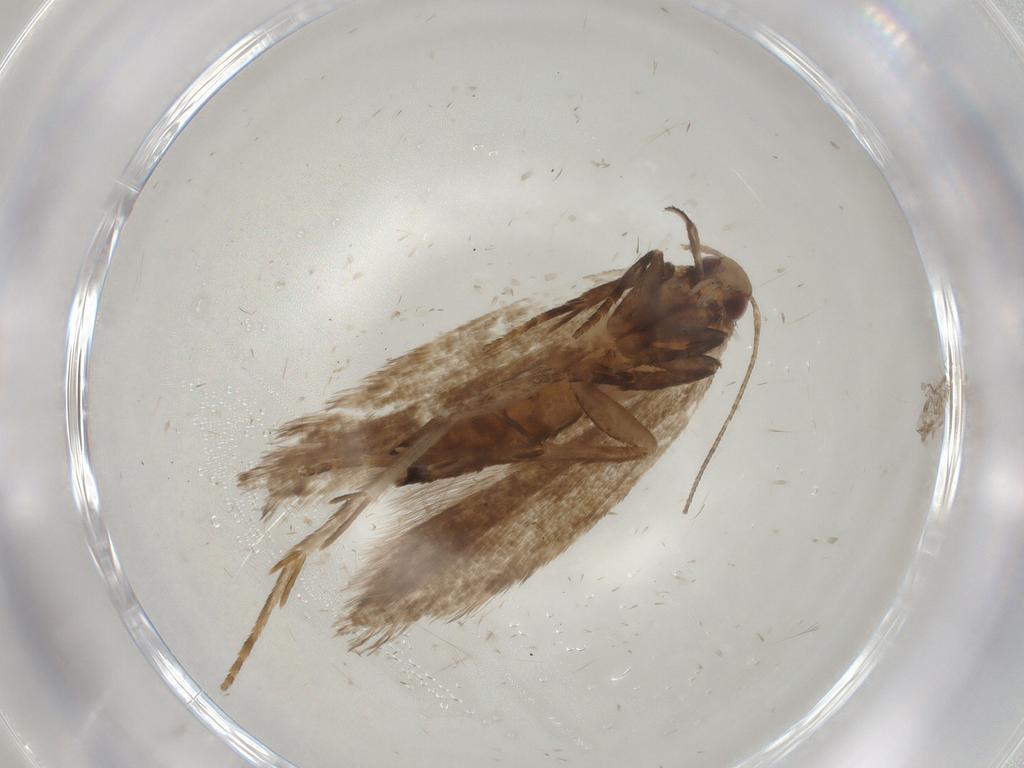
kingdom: Animalia
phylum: Arthropoda
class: Insecta
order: Lepidoptera
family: Gelechiidae
